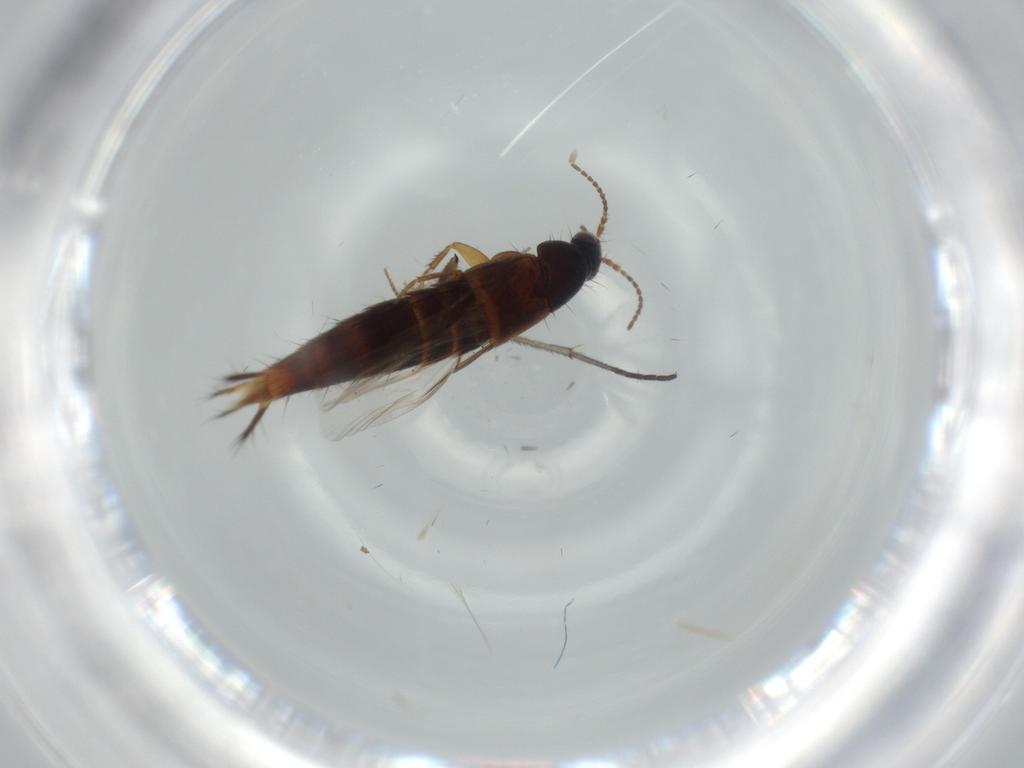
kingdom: Animalia
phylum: Arthropoda
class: Insecta
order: Coleoptera
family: Staphylinidae
